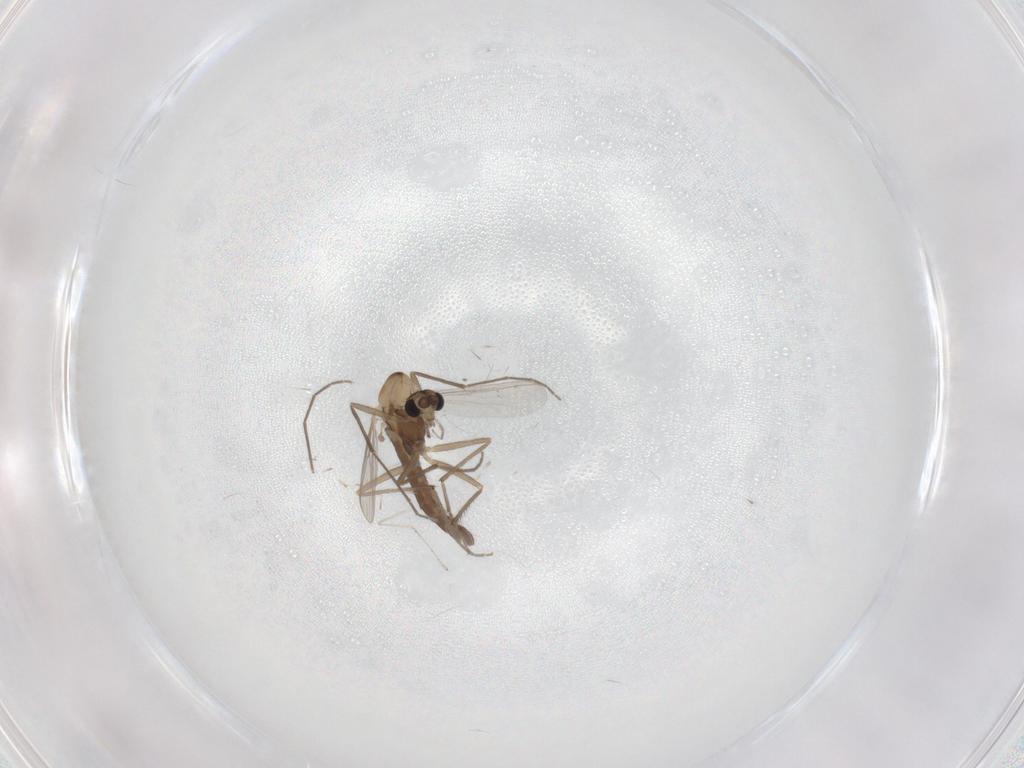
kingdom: Animalia
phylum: Arthropoda
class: Insecta
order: Diptera
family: Chironomidae
